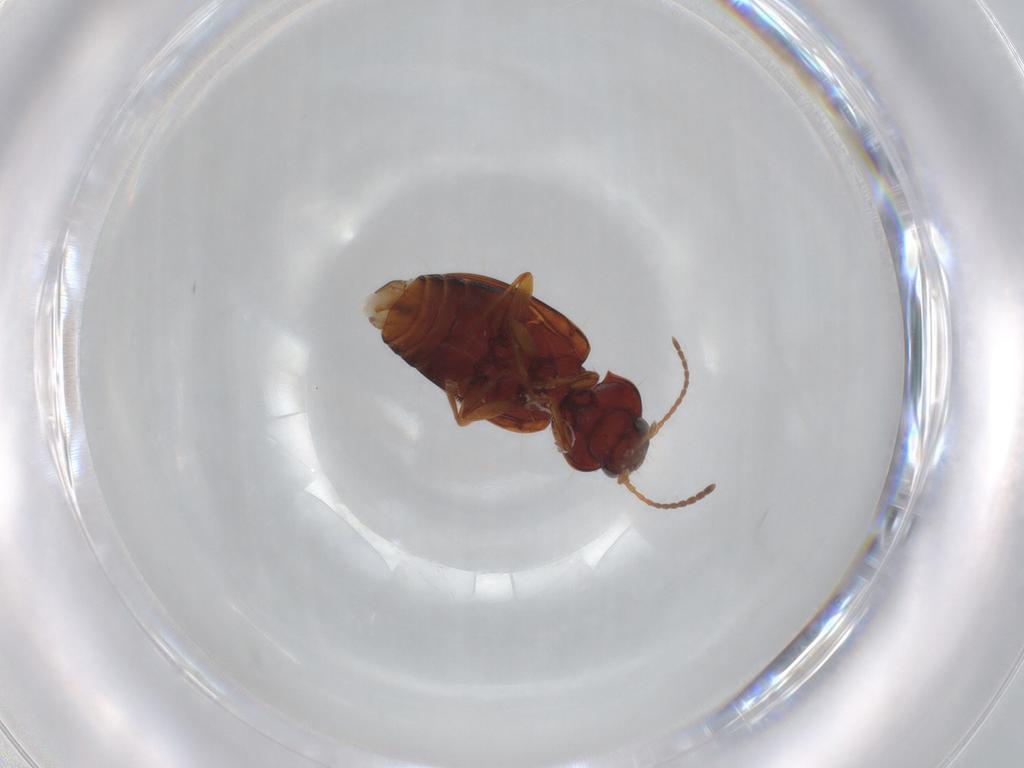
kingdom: Animalia
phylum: Arthropoda
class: Insecta
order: Coleoptera
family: Carabidae
